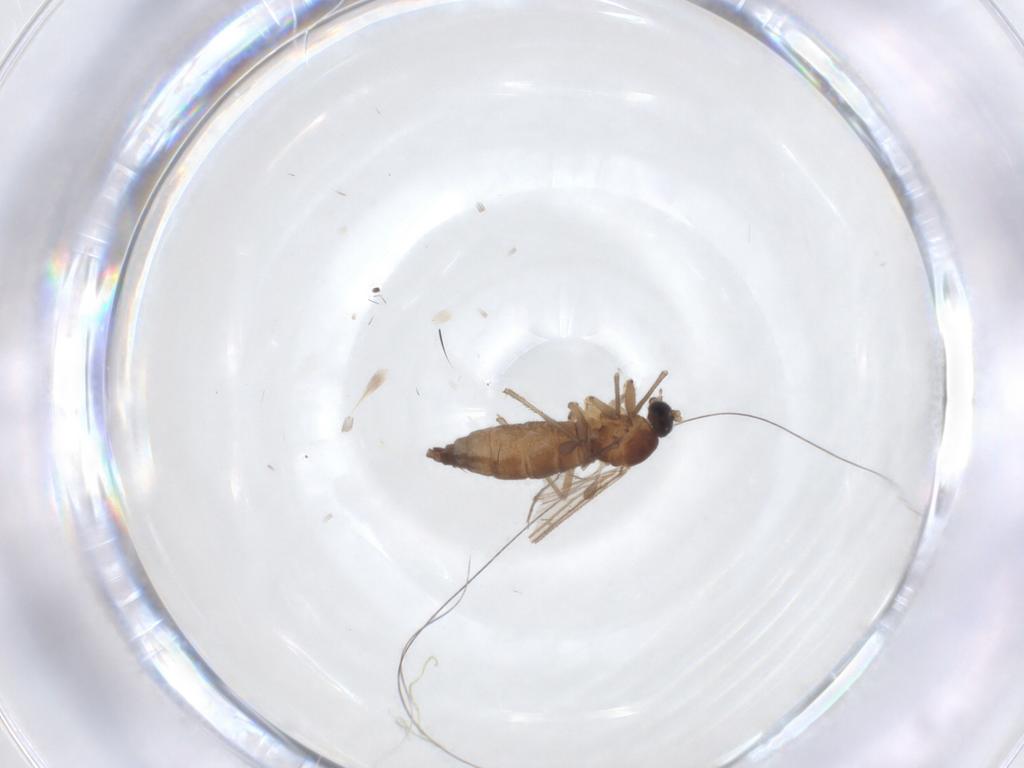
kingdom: Animalia
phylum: Arthropoda
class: Insecta
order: Diptera
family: Sciaridae
